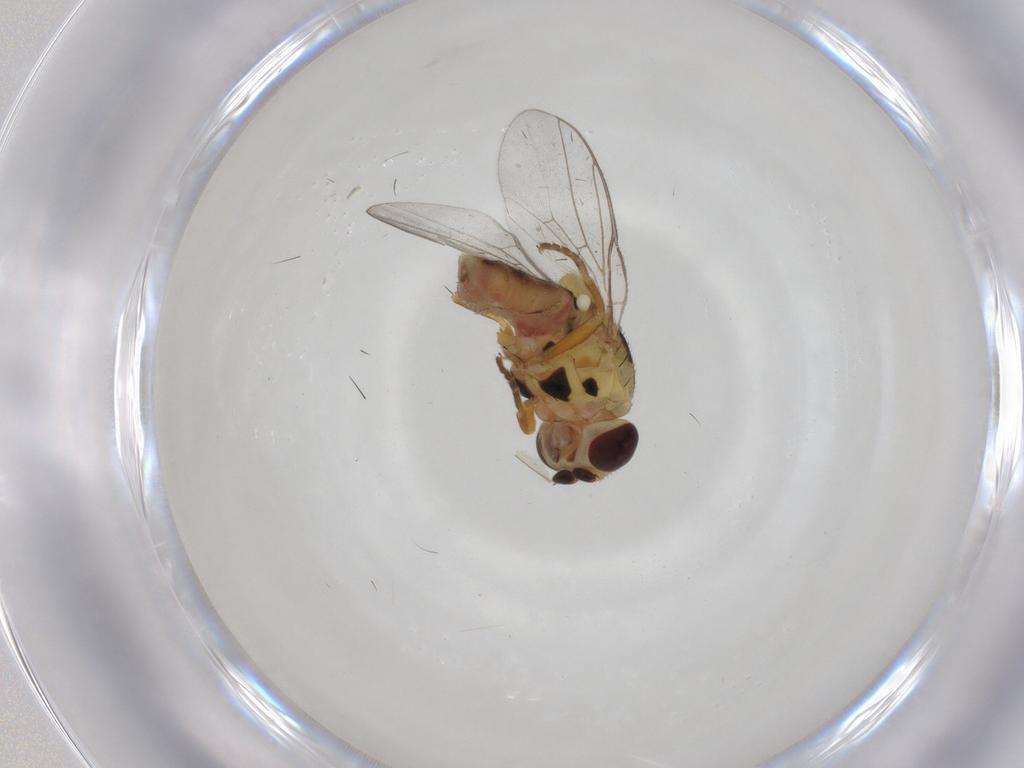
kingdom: Animalia
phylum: Arthropoda
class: Insecta
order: Diptera
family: Chloropidae
